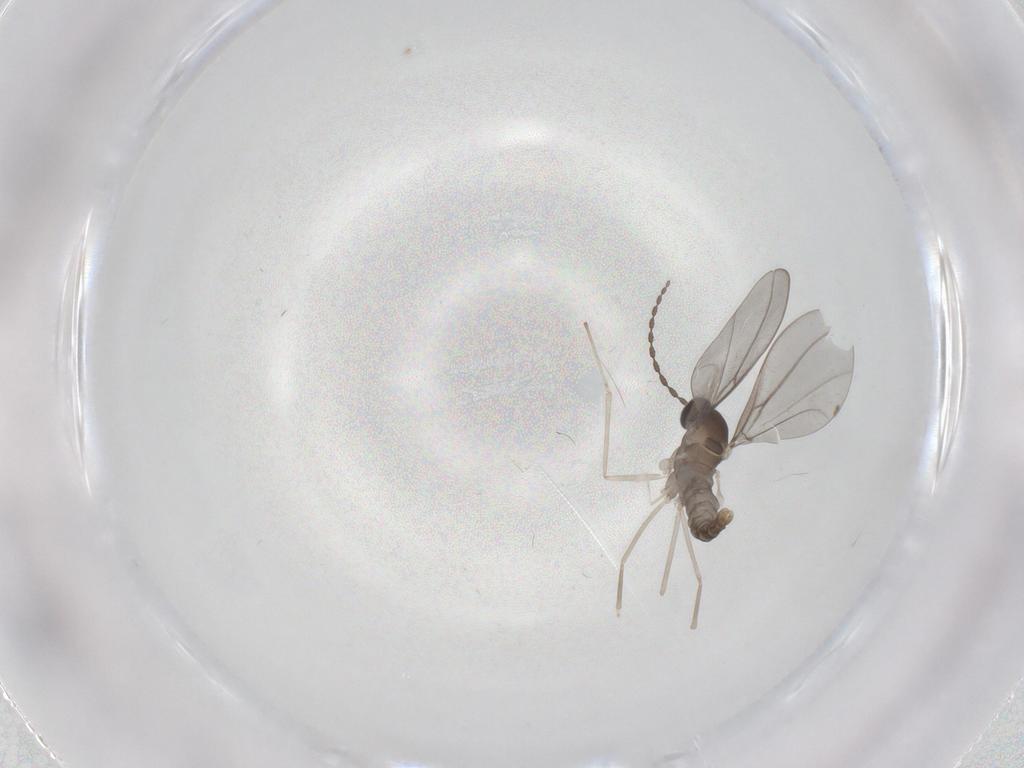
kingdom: Animalia
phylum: Arthropoda
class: Insecta
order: Diptera
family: Cecidomyiidae
